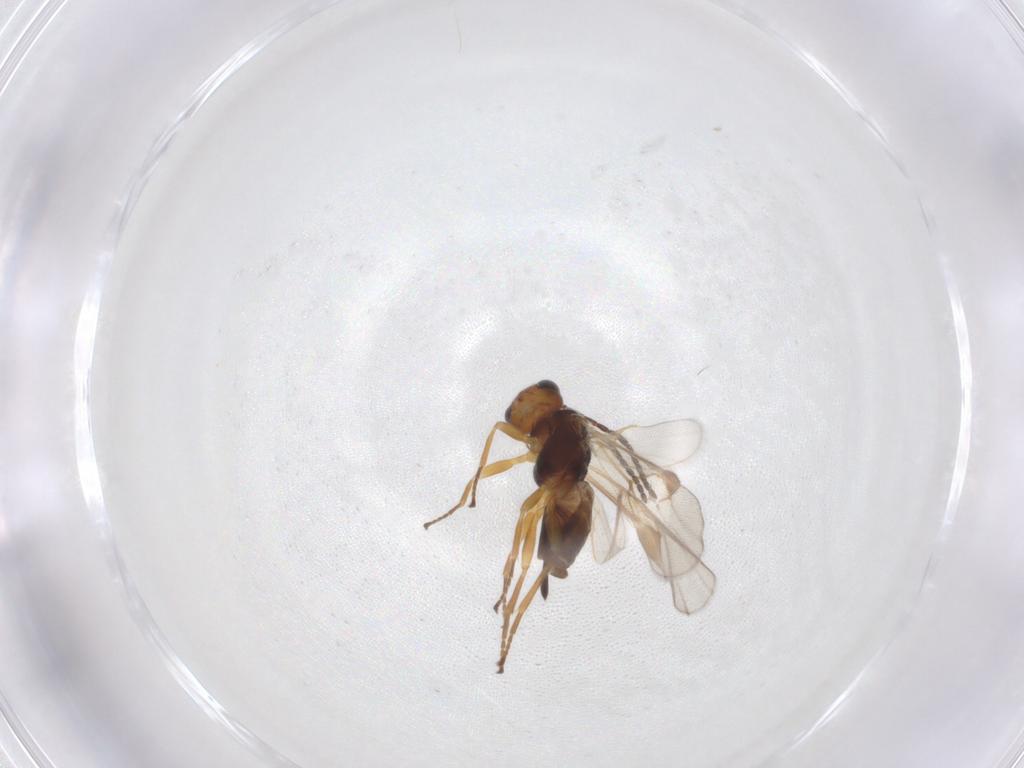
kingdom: Animalia
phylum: Arthropoda
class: Insecta
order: Hymenoptera
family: Braconidae
